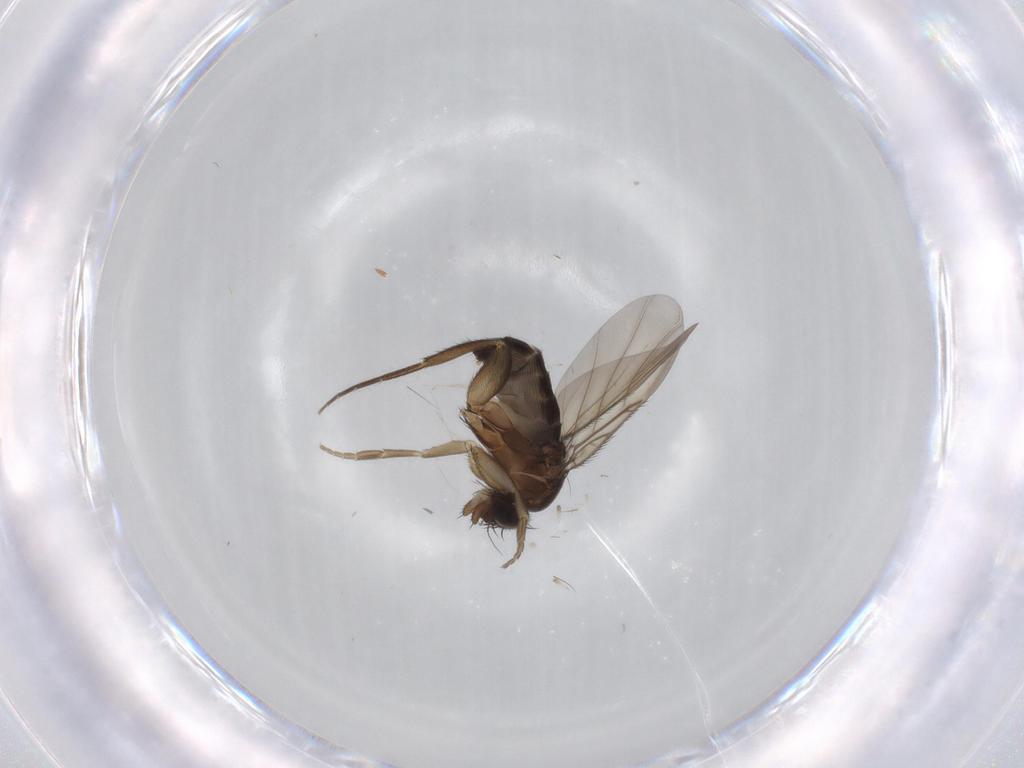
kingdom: Animalia
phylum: Arthropoda
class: Insecta
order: Diptera
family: Phoridae
